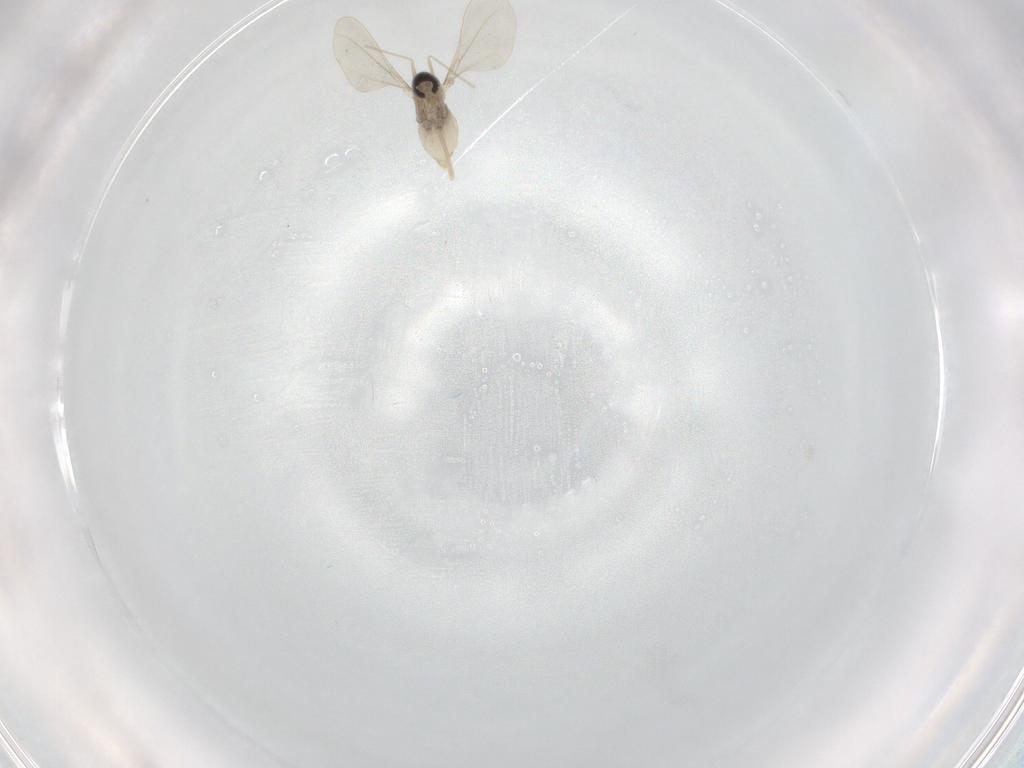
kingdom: Animalia
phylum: Arthropoda
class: Insecta
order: Diptera
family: Cecidomyiidae
